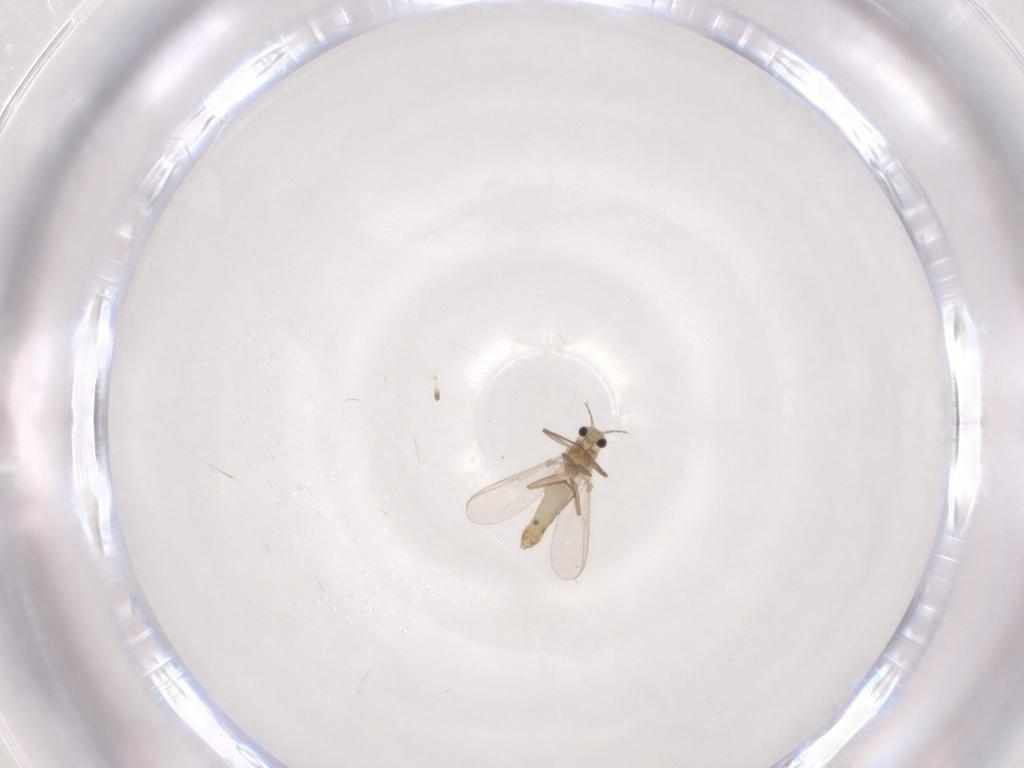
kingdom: Animalia
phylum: Arthropoda
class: Insecta
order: Diptera
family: Chironomidae
